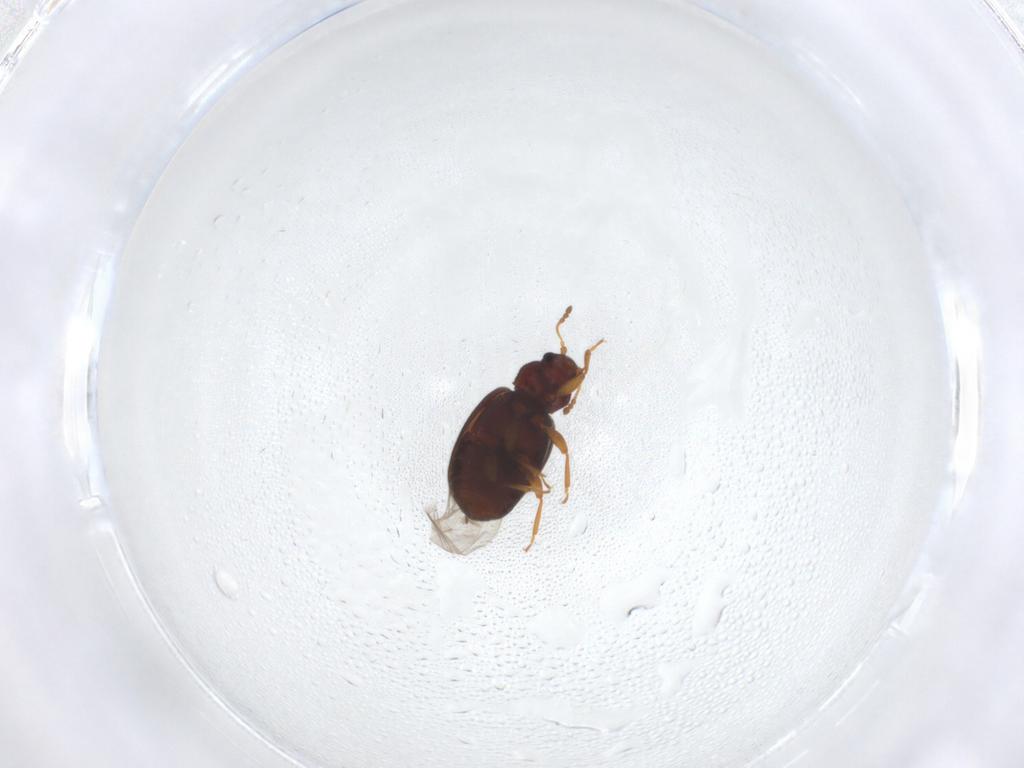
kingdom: Animalia
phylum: Arthropoda
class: Insecta
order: Coleoptera
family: Latridiidae
